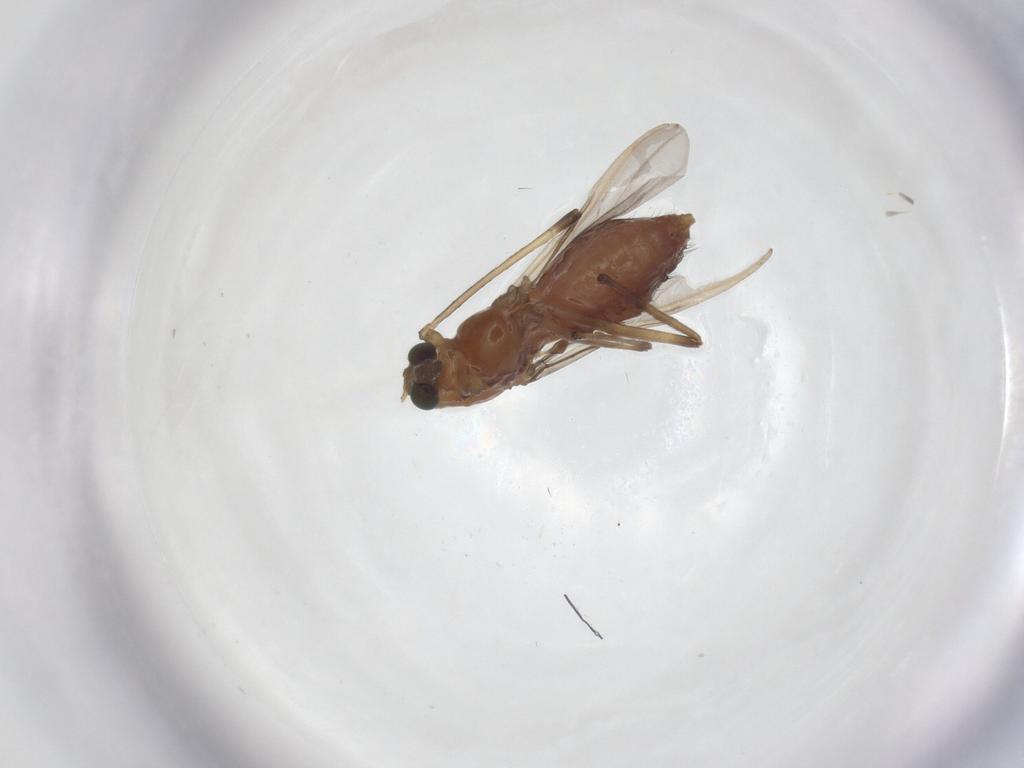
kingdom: Animalia
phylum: Arthropoda
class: Insecta
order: Diptera
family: Chironomidae
